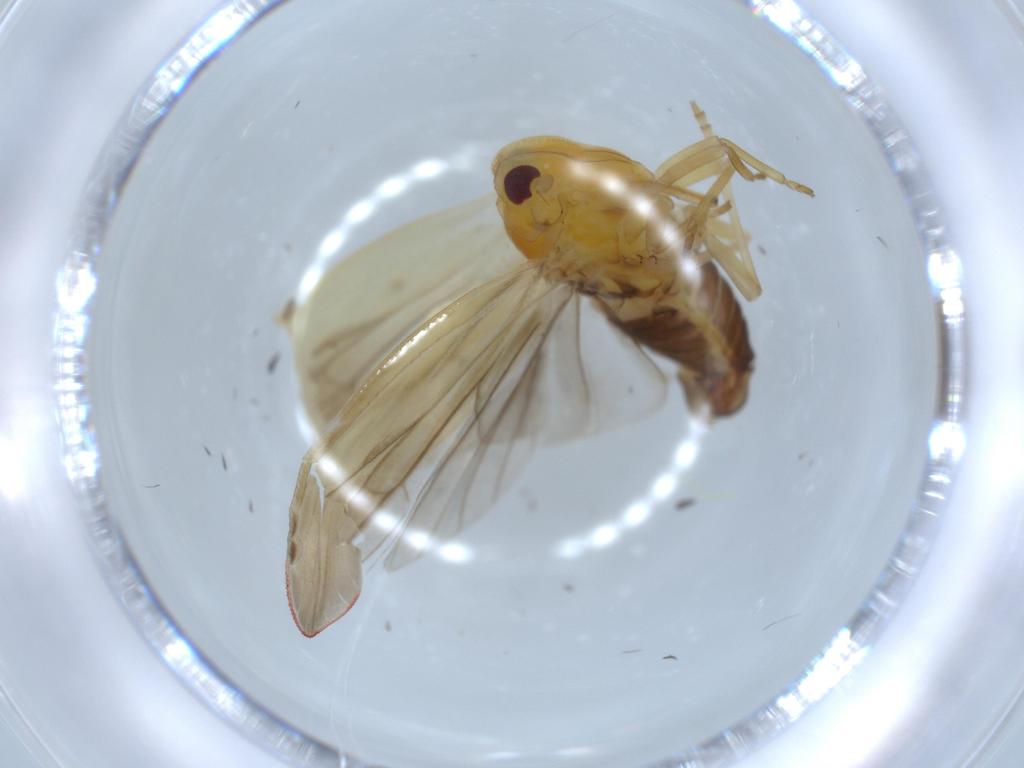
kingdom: Animalia
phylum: Arthropoda
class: Insecta
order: Hemiptera
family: Derbidae
